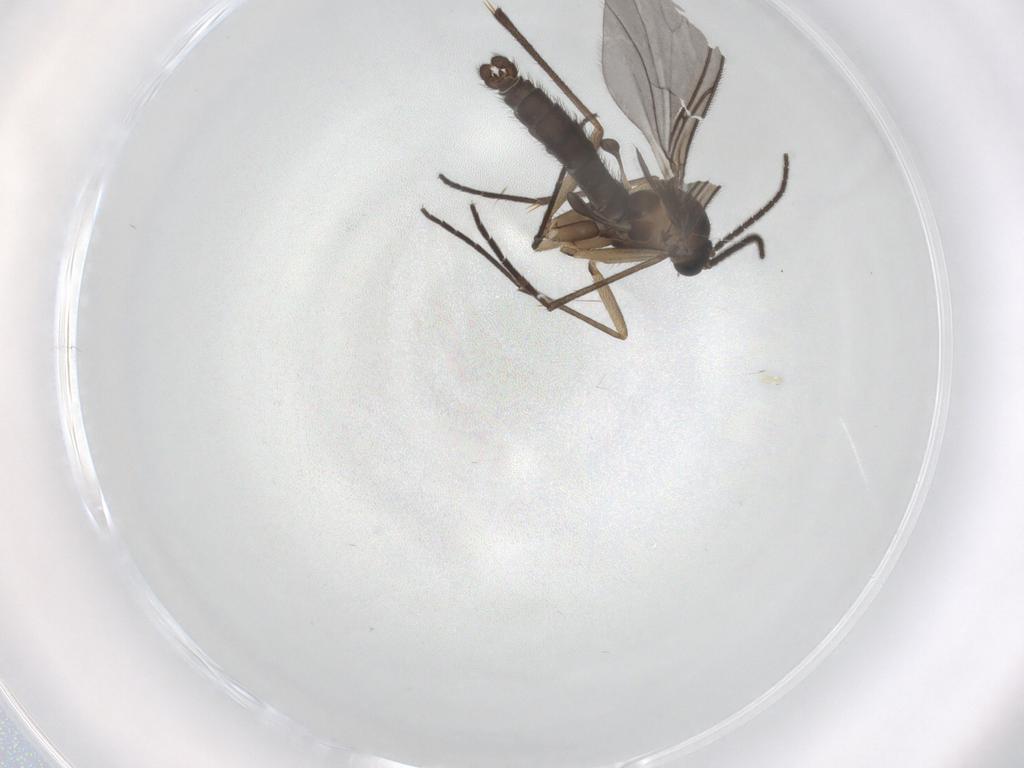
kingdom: Animalia
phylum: Arthropoda
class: Insecta
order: Diptera
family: Sciaridae
